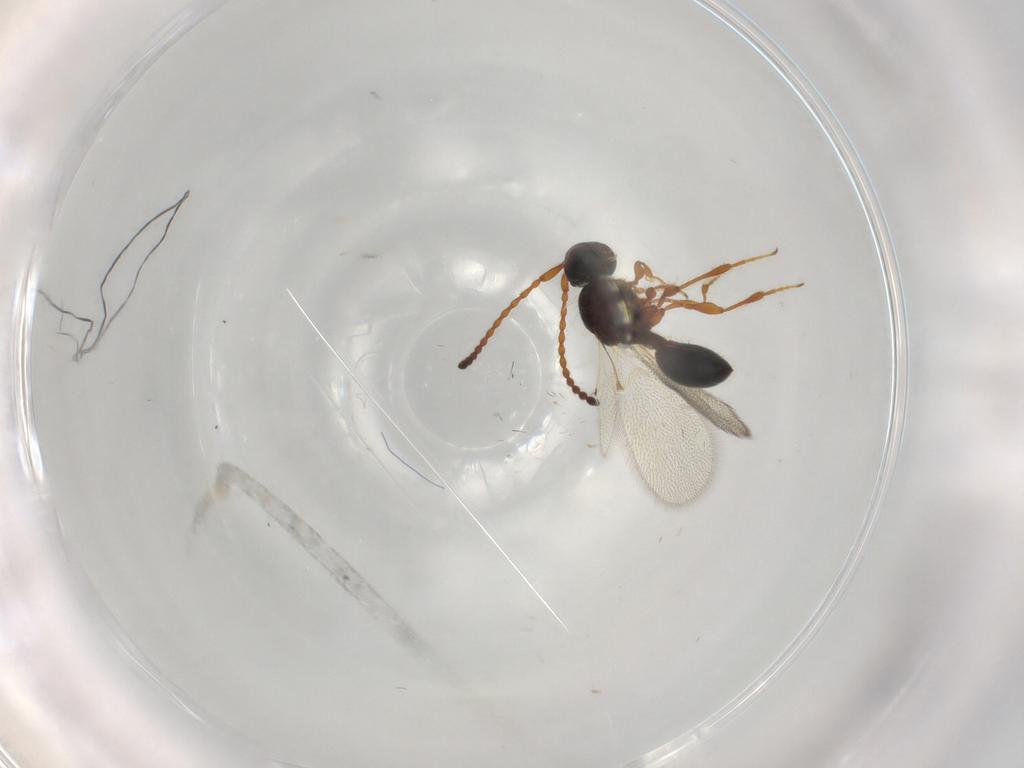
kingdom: Animalia
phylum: Arthropoda
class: Insecta
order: Hymenoptera
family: Diapriidae
